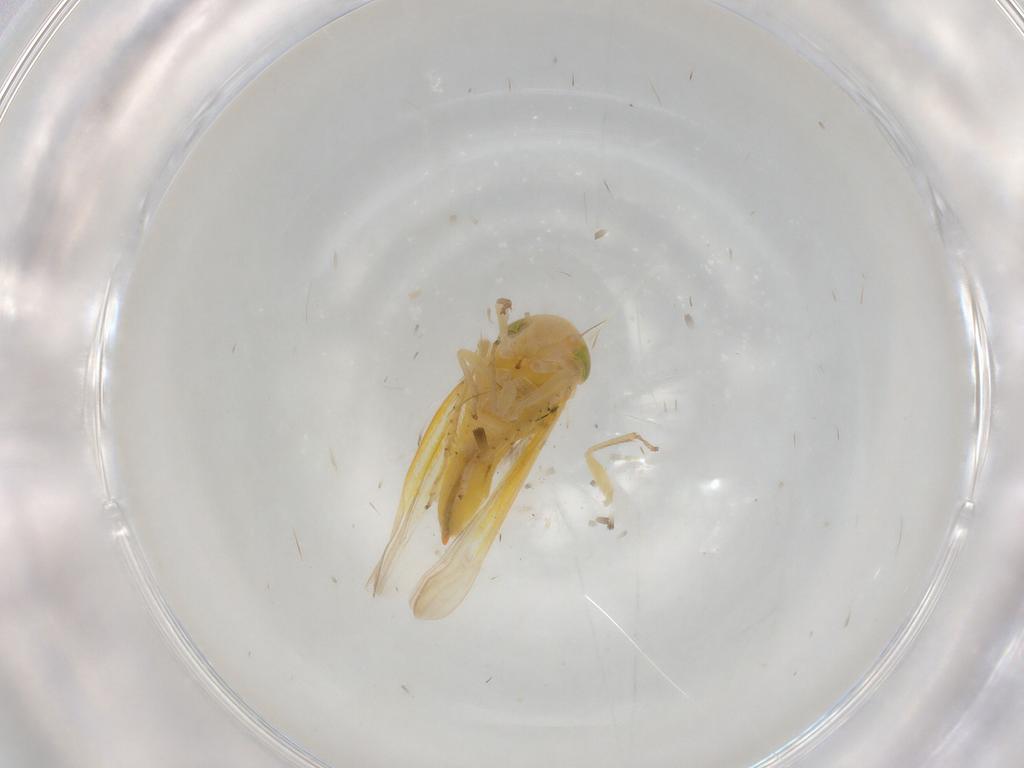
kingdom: Animalia
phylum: Arthropoda
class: Insecta
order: Hemiptera
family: Cicadellidae
